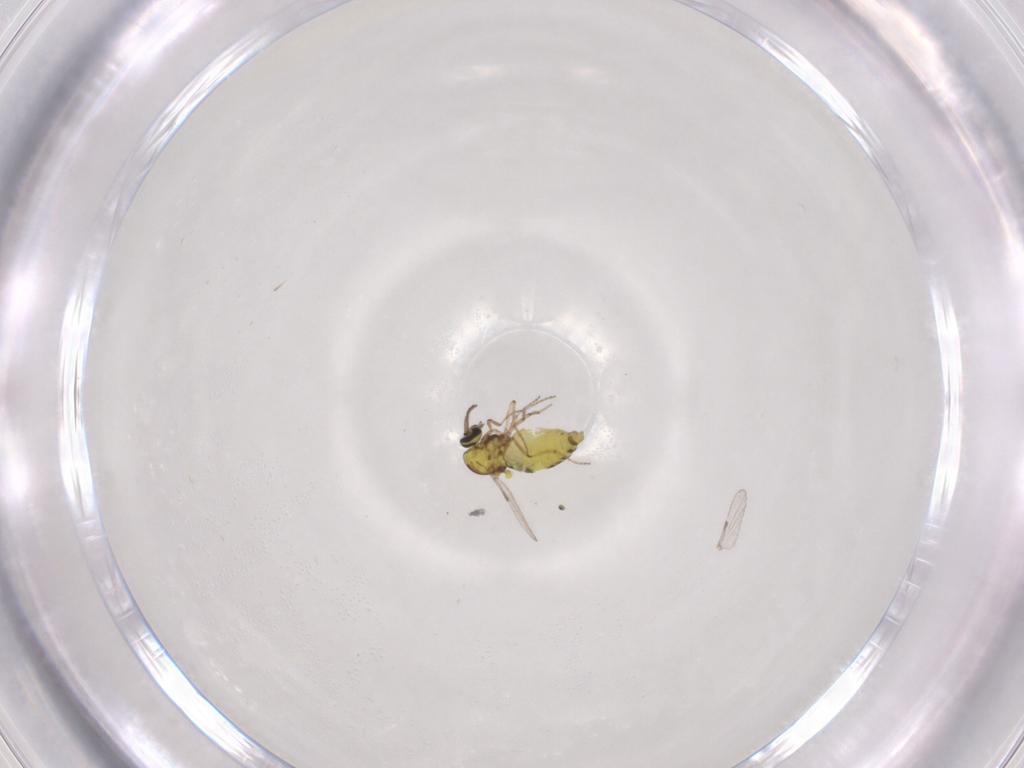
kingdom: Animalia
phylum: Arthropoda
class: Insecta
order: Diptera
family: Ceratopogonidae
